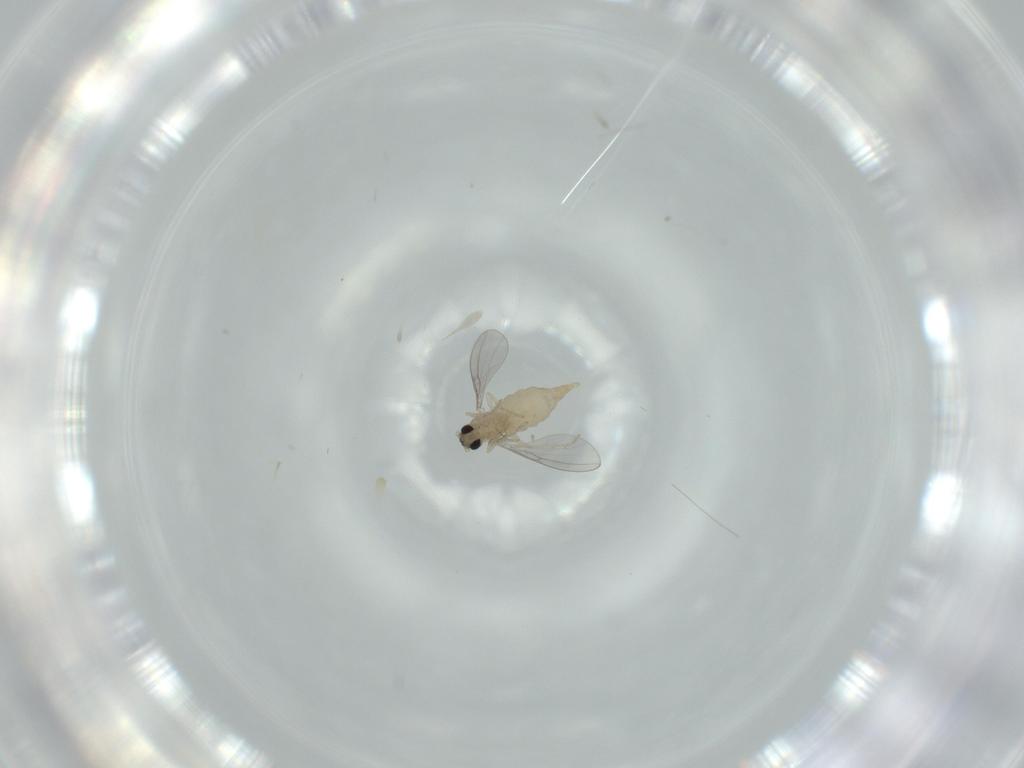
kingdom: Animalia
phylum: Arthropoda
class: Insecta
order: Diptera
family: Cecidomyiidae
